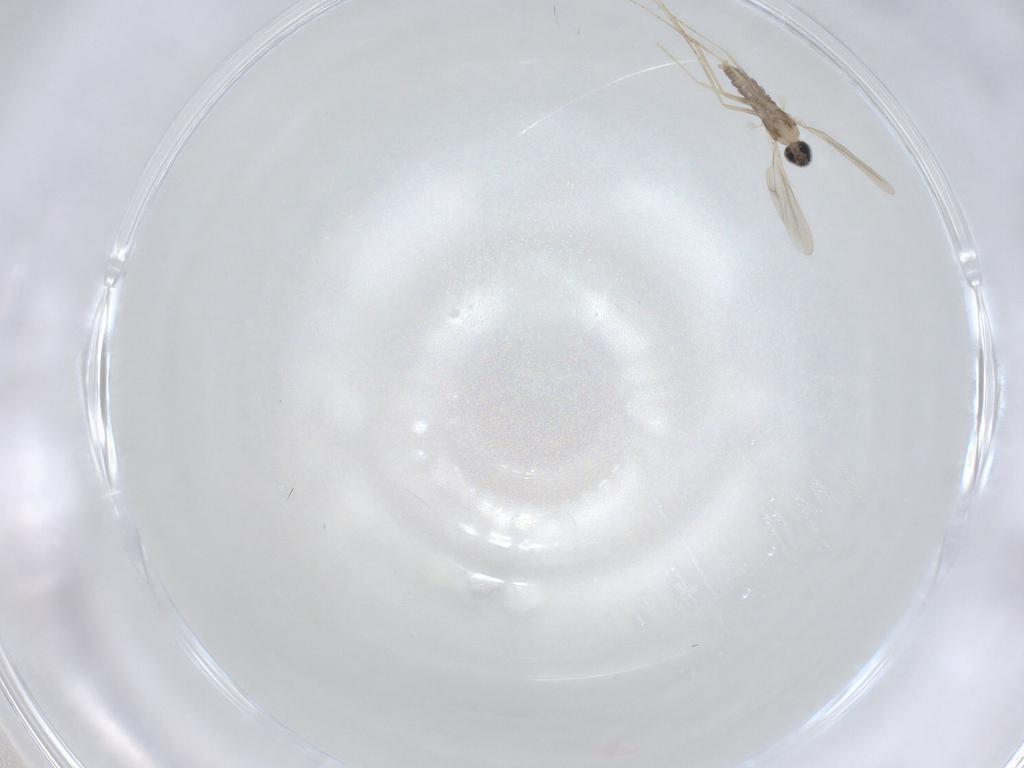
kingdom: Animalia
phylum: Arthropoda
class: Insecta
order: Diptera
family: Cecidomyiidae
